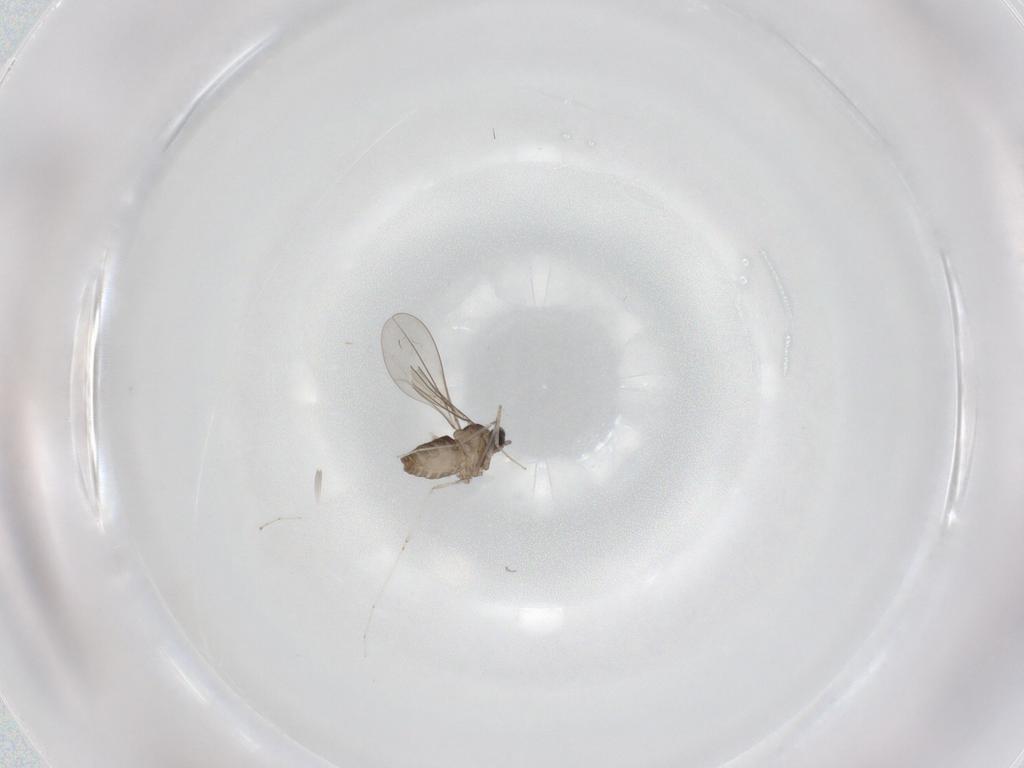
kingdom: Animalia
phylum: Arthropoda
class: Insecta
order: Diptera
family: Cecidomyiidae
